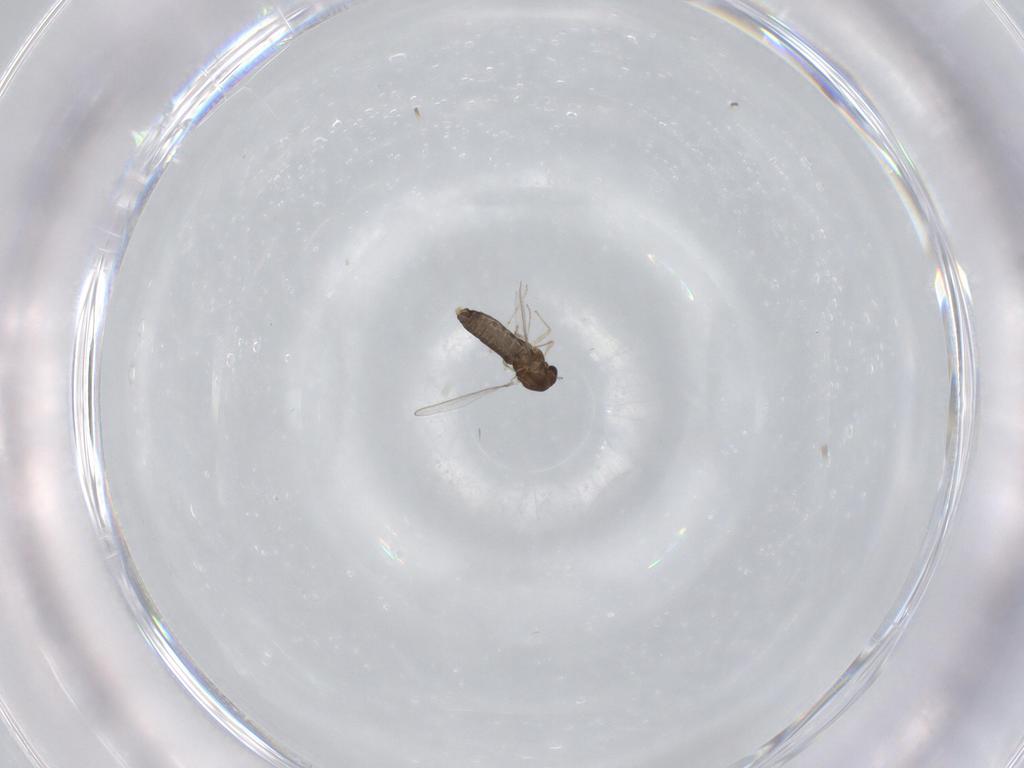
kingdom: Animalia
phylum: Arthropoda
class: Insecta
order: Diptera
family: Chironomidae
